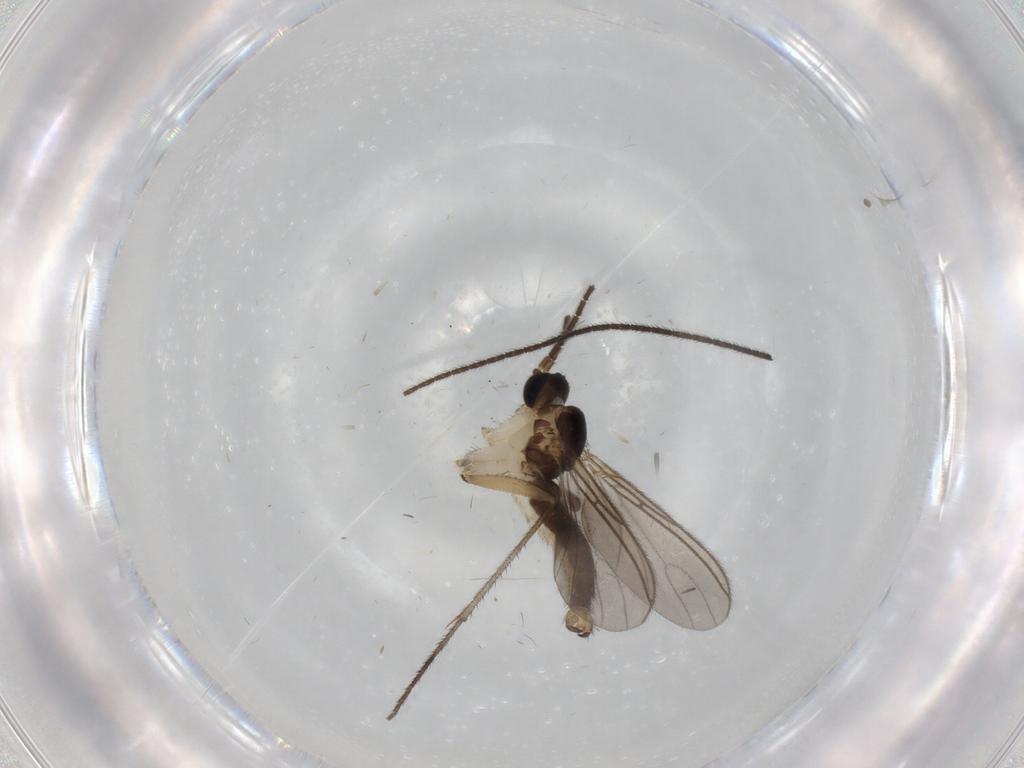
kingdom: Animalia
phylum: Arthropoda
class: Insecta
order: Diptera
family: Sciaridae
